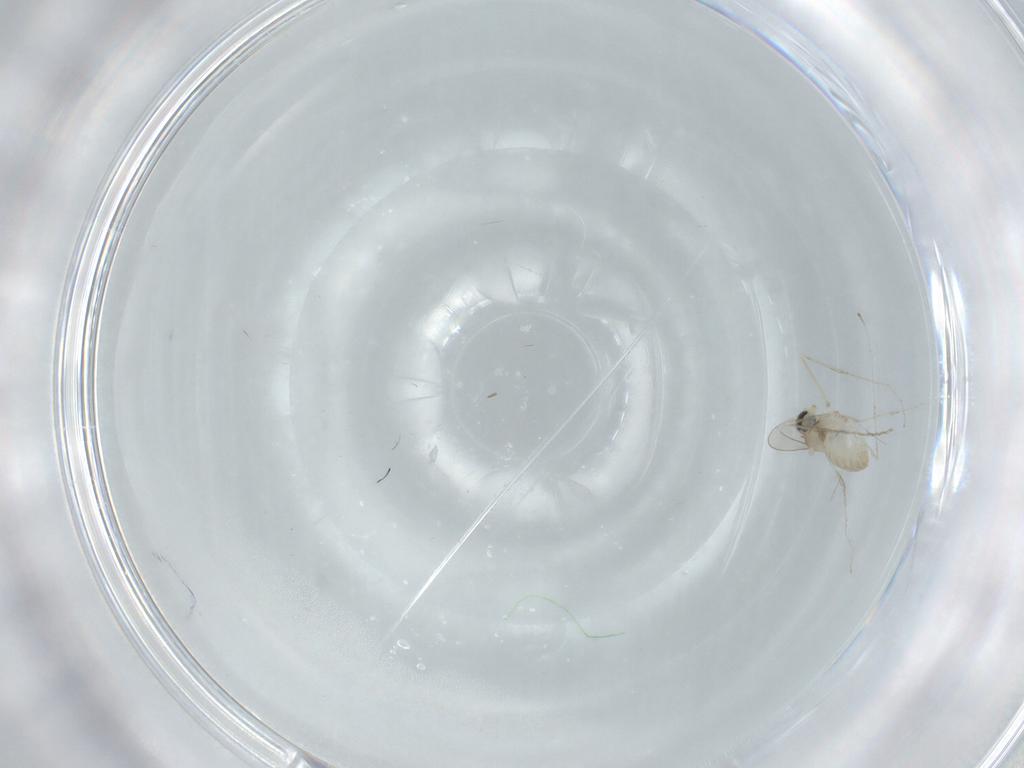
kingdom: Animalia
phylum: Arthropoda
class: Insecta
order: Diptera
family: Cecidomyiidae
